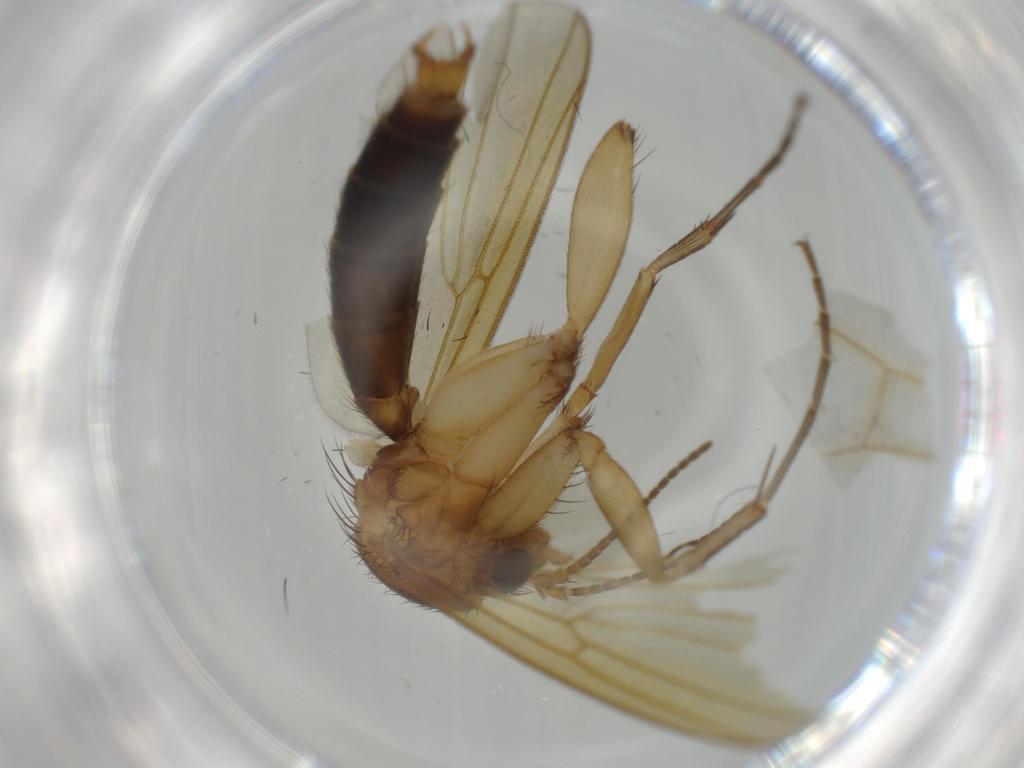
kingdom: Animalia
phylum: Arthropoda
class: Insecta
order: Diptera
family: Phoridae
